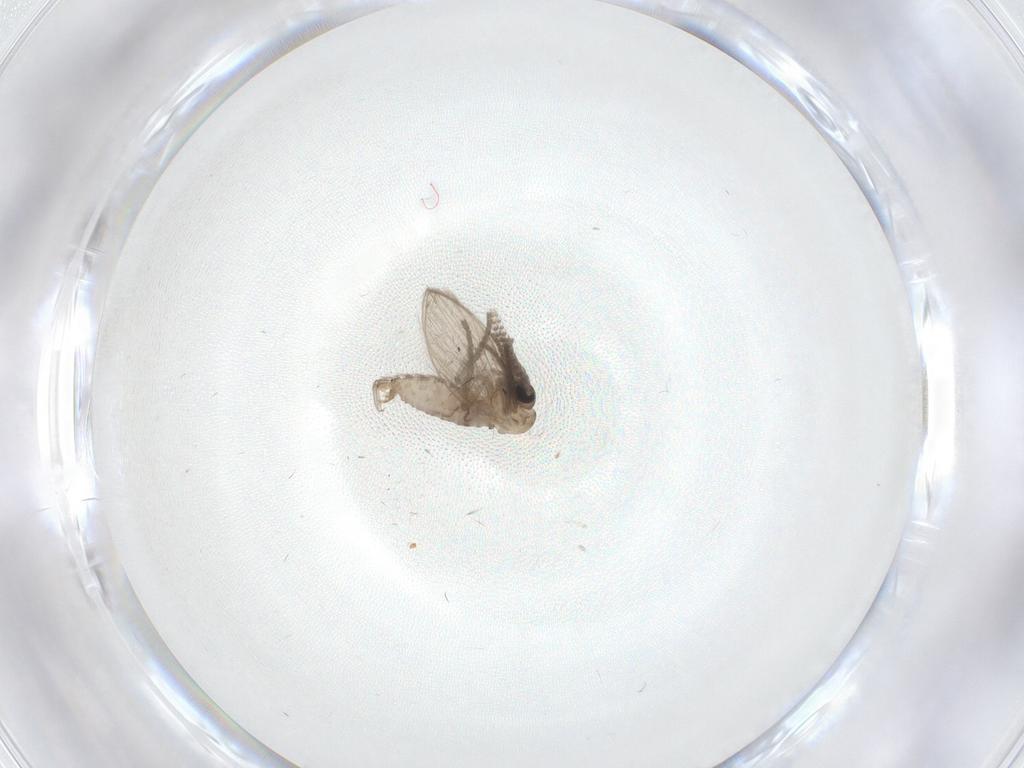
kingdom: Animalia
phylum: Arthropoda
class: Insecta
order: Diptera
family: Psychodidae
